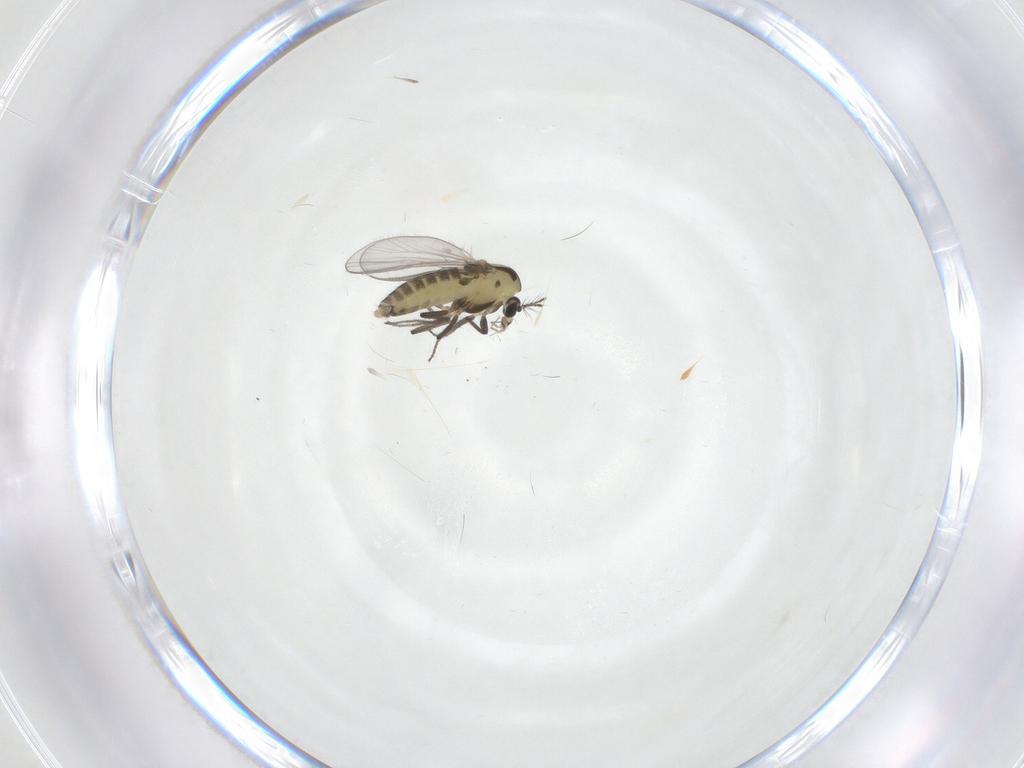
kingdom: Animalia
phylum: Arthropoda
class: Insecta
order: Diptera
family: Chironomidae
